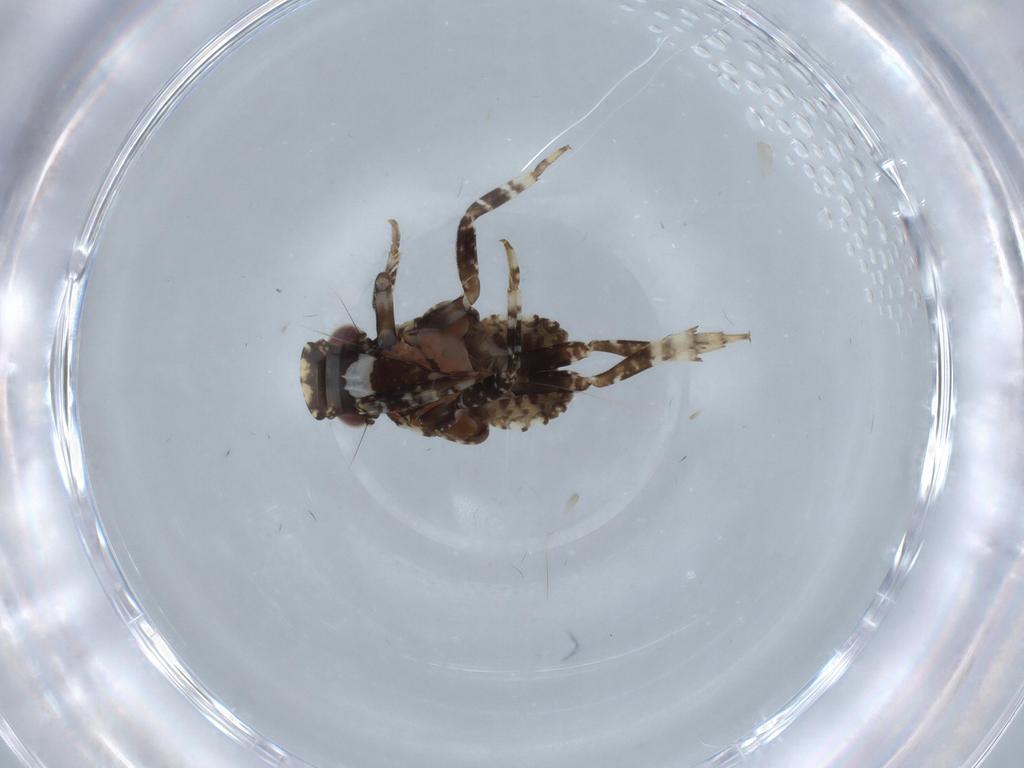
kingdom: Animalia
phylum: Arthropoda
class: Insecta
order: Hemiptera
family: Fulgoridae
